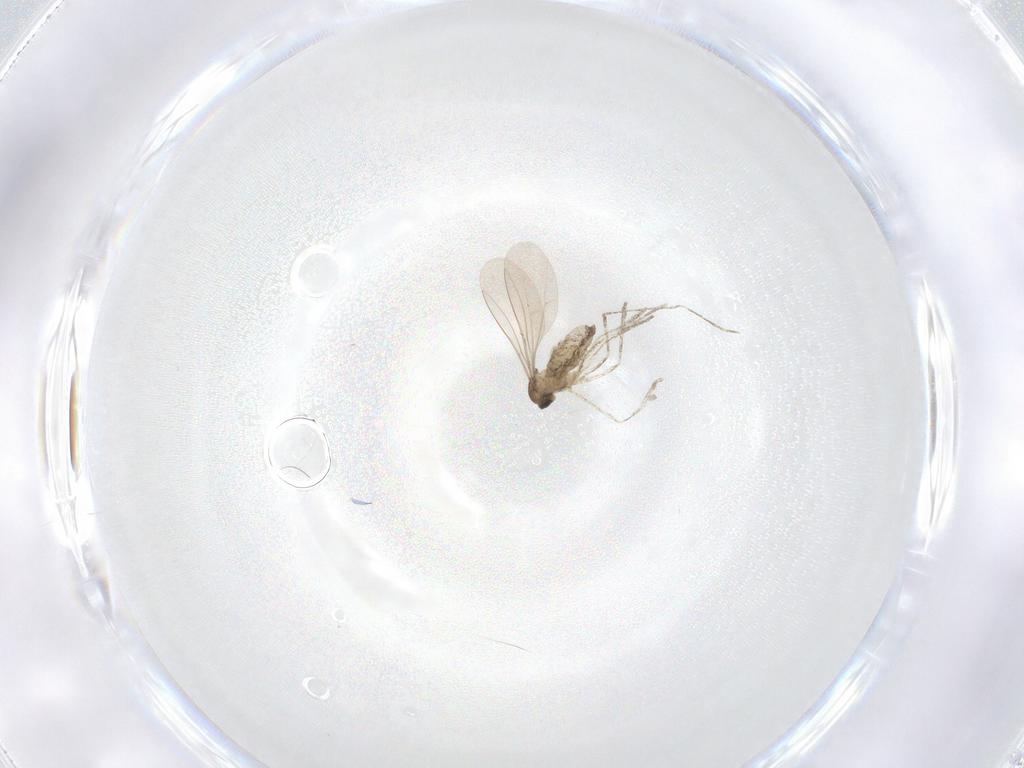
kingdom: Animalia
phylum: Arthropoda
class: Insecta
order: Diptera
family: Cecidomyiidae
